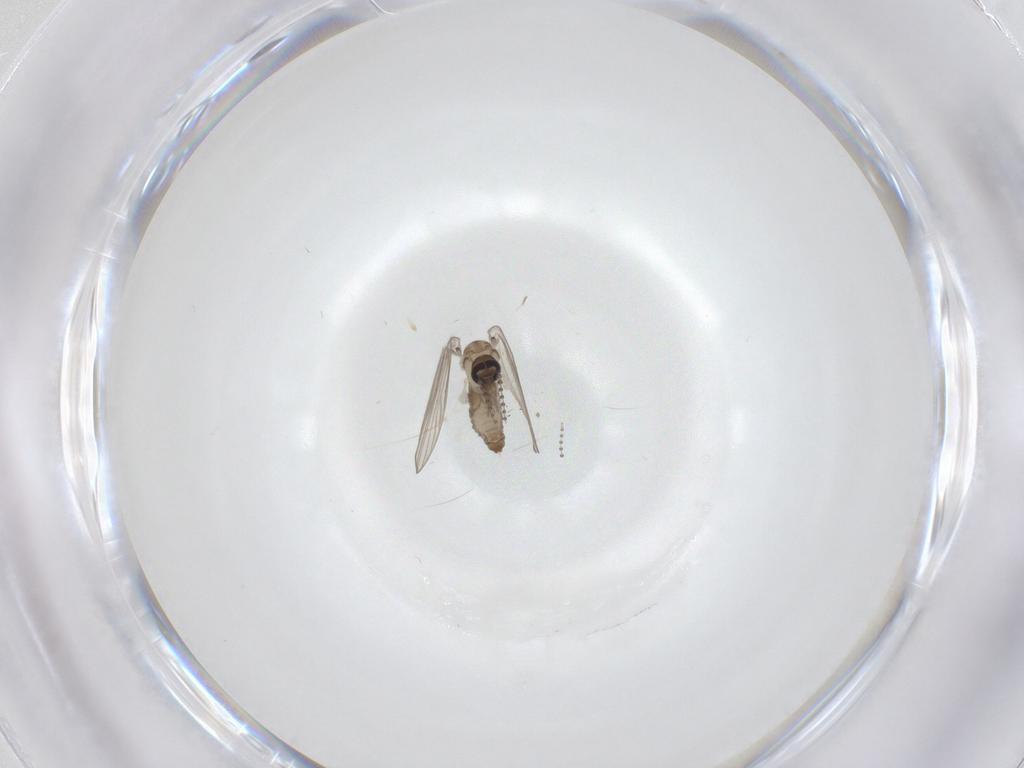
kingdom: Animalia
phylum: Arthropoda
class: Insecta
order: Diptera
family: Psychodidae
